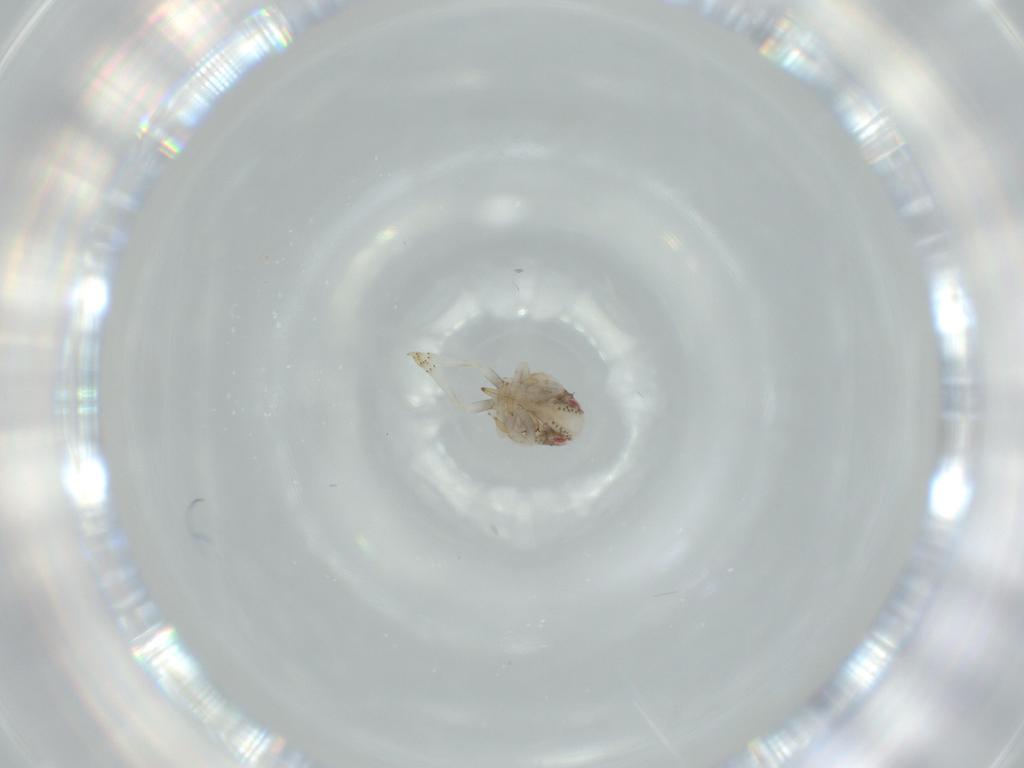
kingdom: Animalia
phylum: Arthropoda
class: Insecta
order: Hemiptera
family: Acanaloniidae
